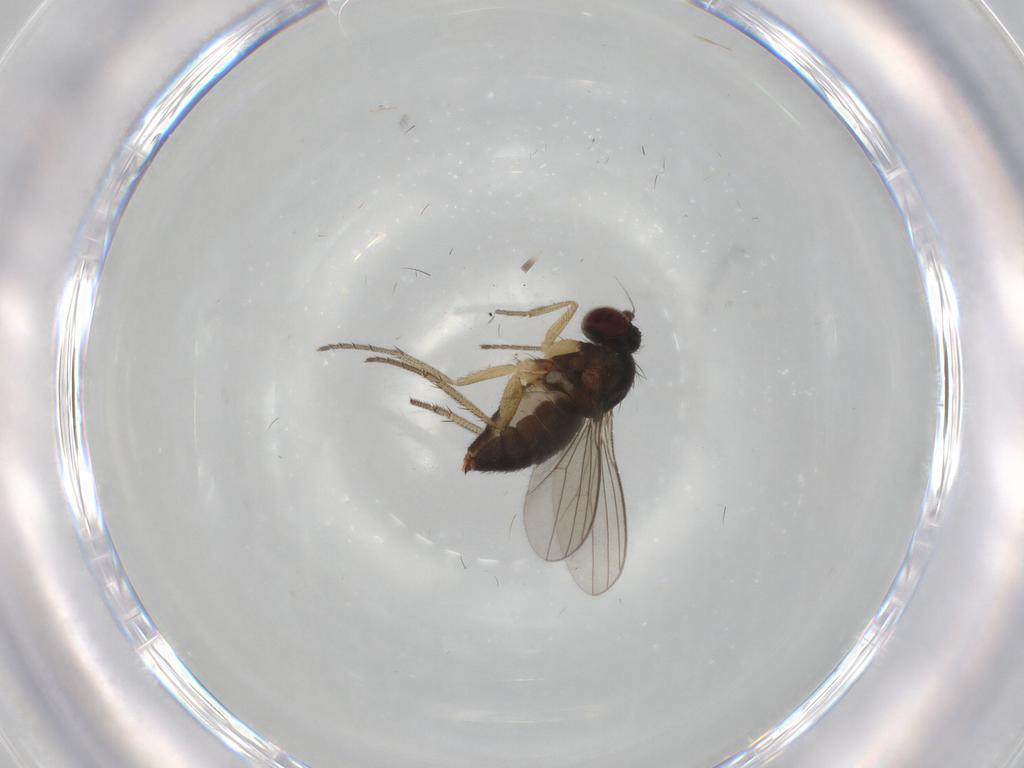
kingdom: Animalia
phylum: Arthropoda
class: Insecta
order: Diptera
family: Dolichopodidae
